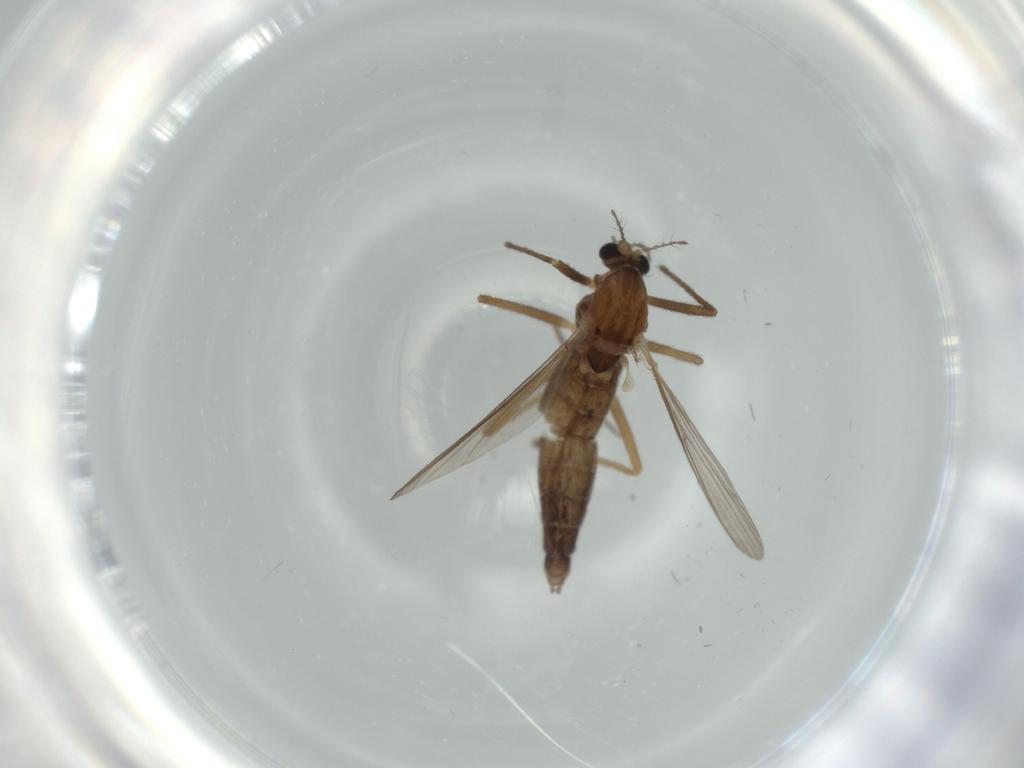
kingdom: Animalia
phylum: Arthropoda
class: Insecta
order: Diptera
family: Chironomidae
